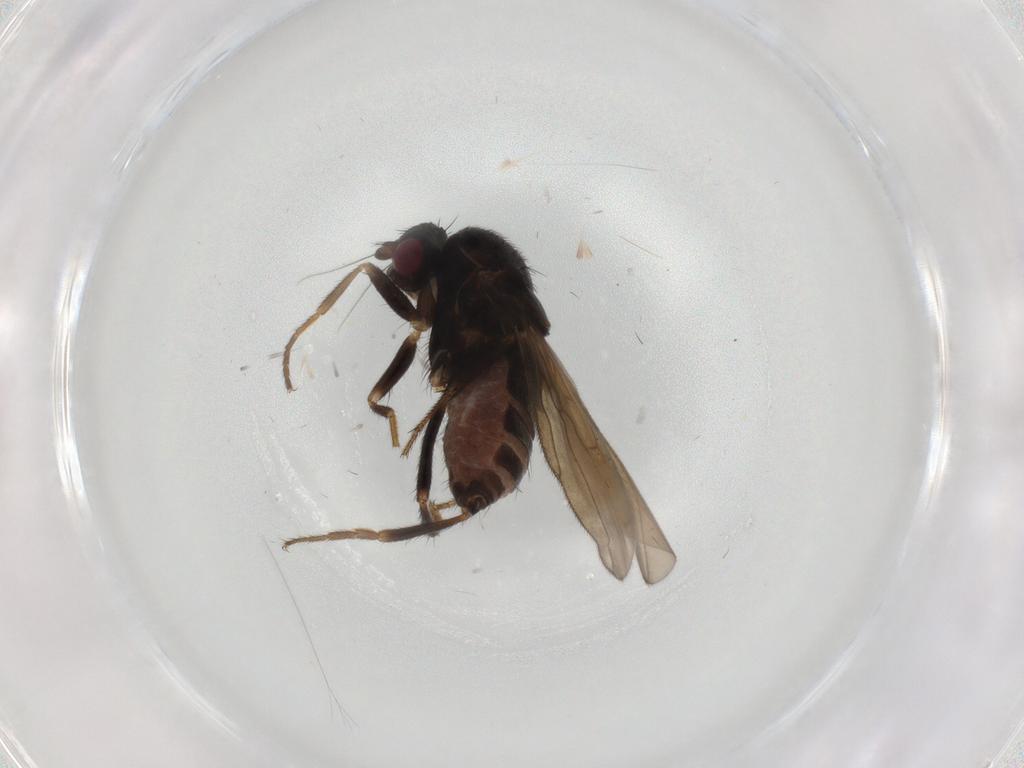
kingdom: Animalia
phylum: Arthropoda
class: Insecta
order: Diptera
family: Sphaeroceridae
